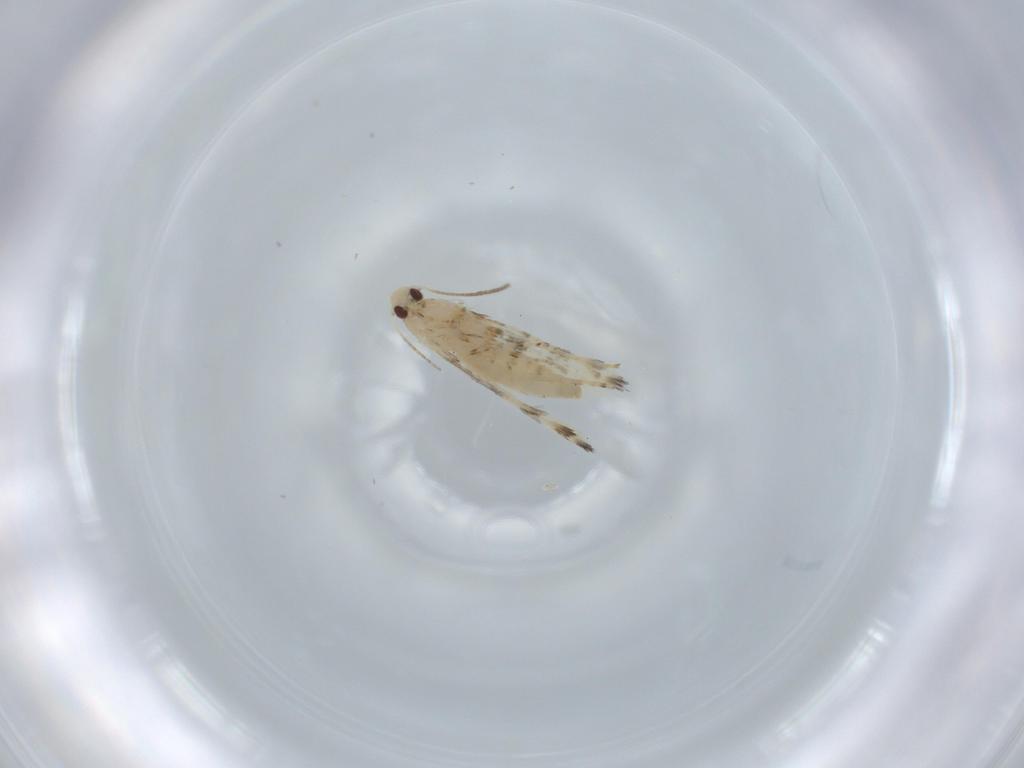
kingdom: Animalia
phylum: Arthropoda
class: Insecta
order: Lepidoptera
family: Gracillariidae
